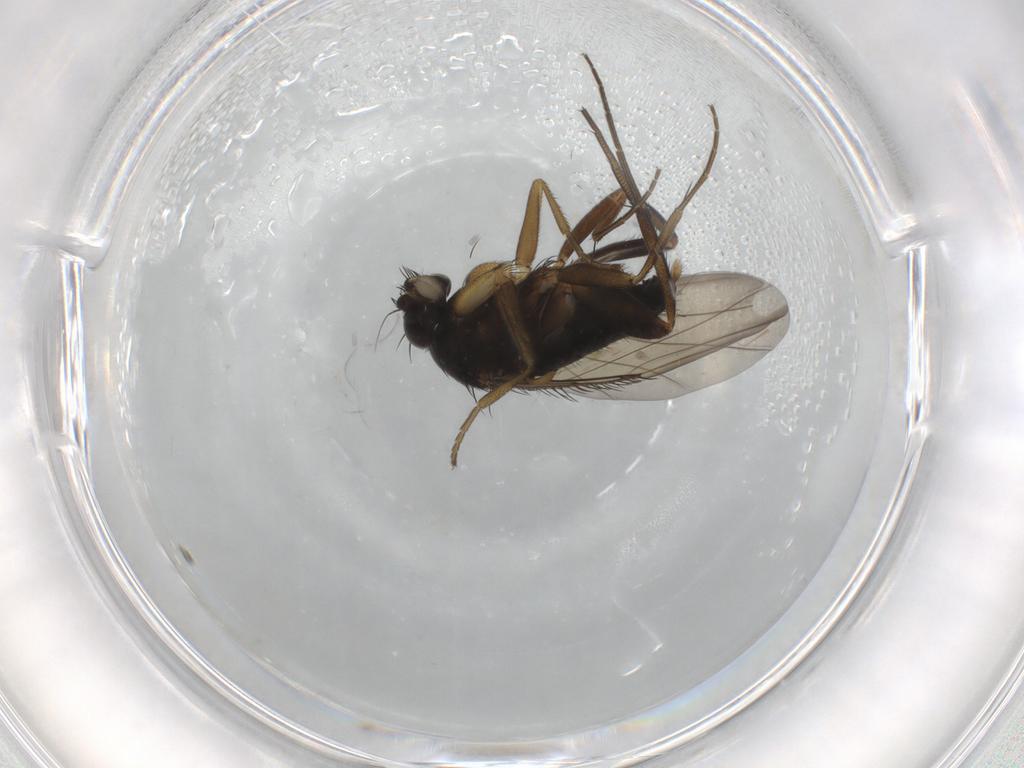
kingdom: Animalia
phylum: Arthropoda
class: Insecta
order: Diptera
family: Phoridae
